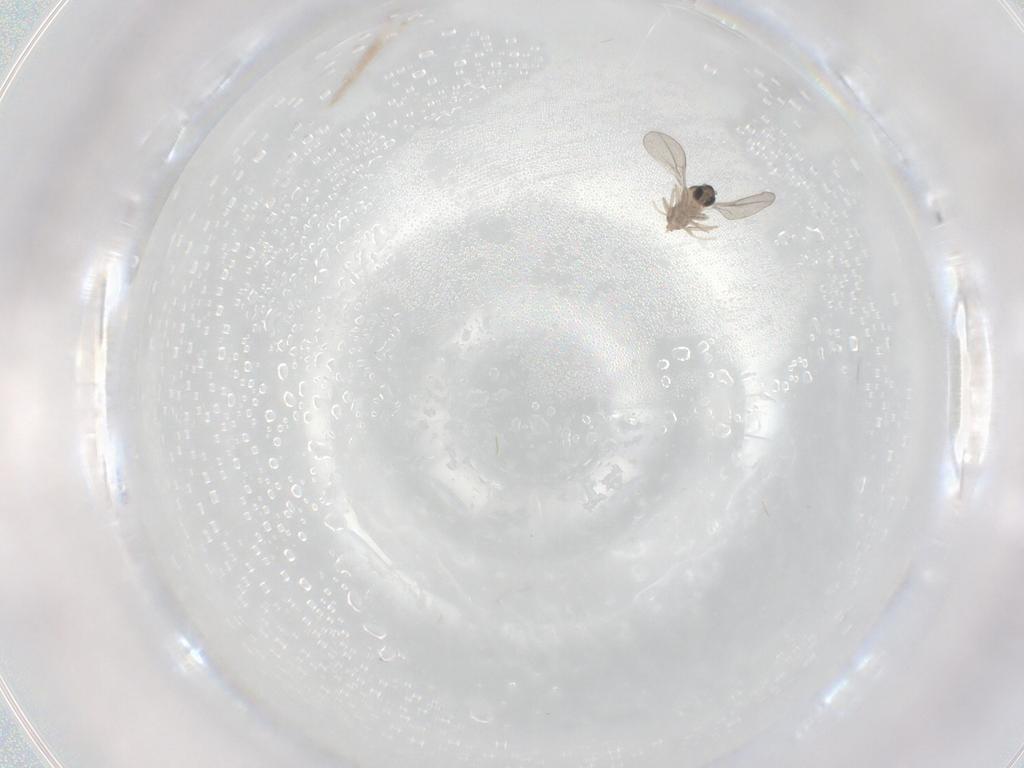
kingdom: Animalia
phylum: Arthropoda
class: Insecta
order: Diptera
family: Cecidomyiidae
